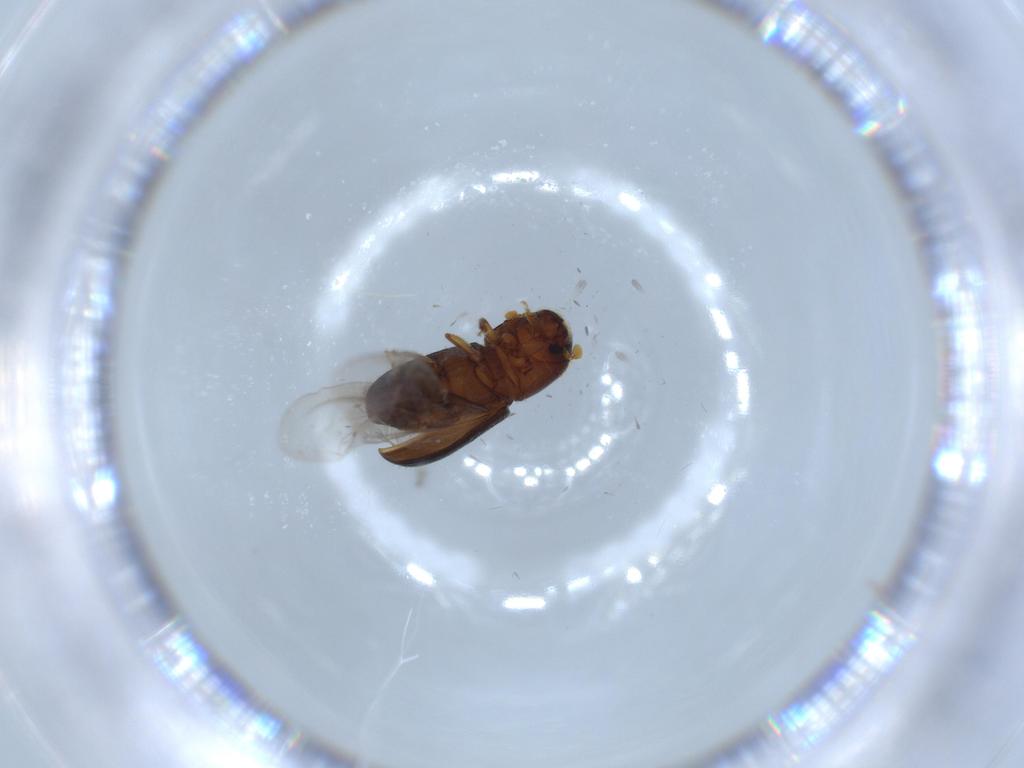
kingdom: Animalia
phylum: Arthropoda
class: Insecta
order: Coleoptera
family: Curculionidae
